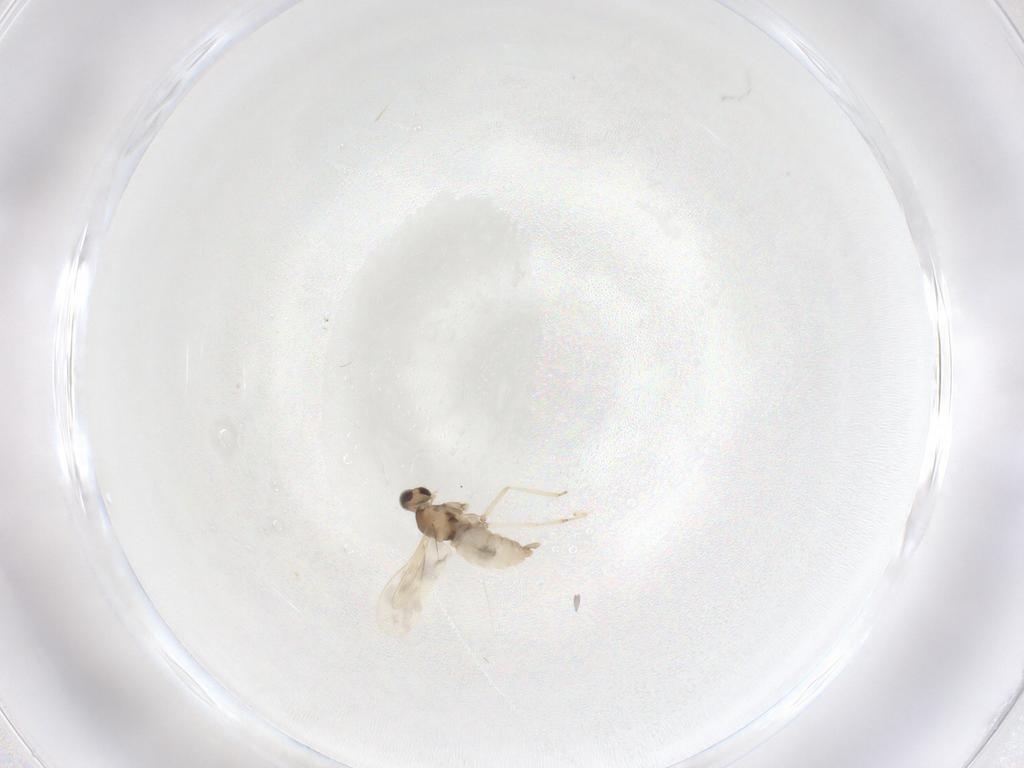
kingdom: Animalia
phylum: Arthropoda
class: Insecta
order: Diptera
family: Cecidomyiidae
